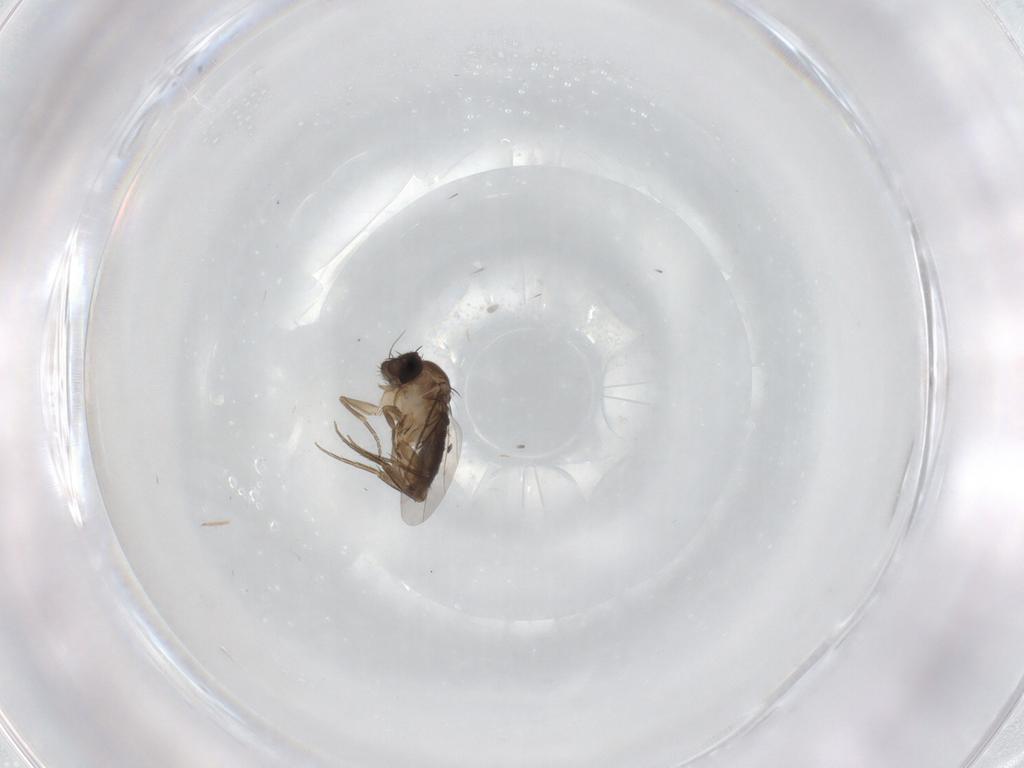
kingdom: Animalia
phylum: Arthropoda
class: Insecta
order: Diptera
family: Phoridae
